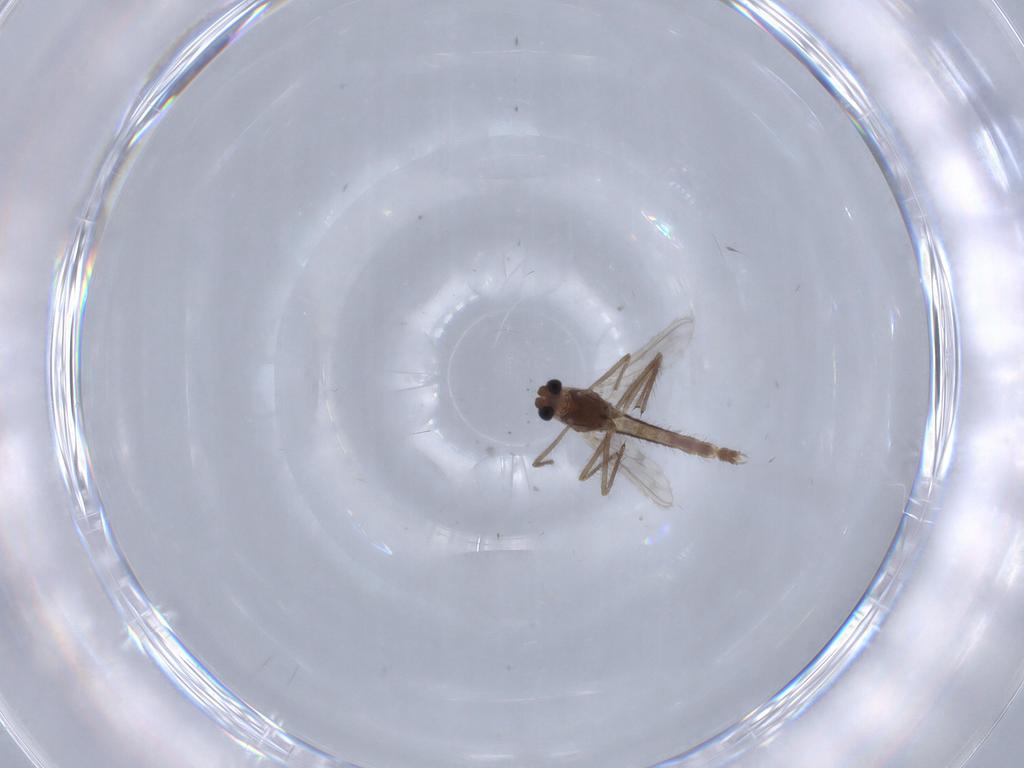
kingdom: Animalia
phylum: Arthropoda
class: Insecta
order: Diptera
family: Chironomidae
